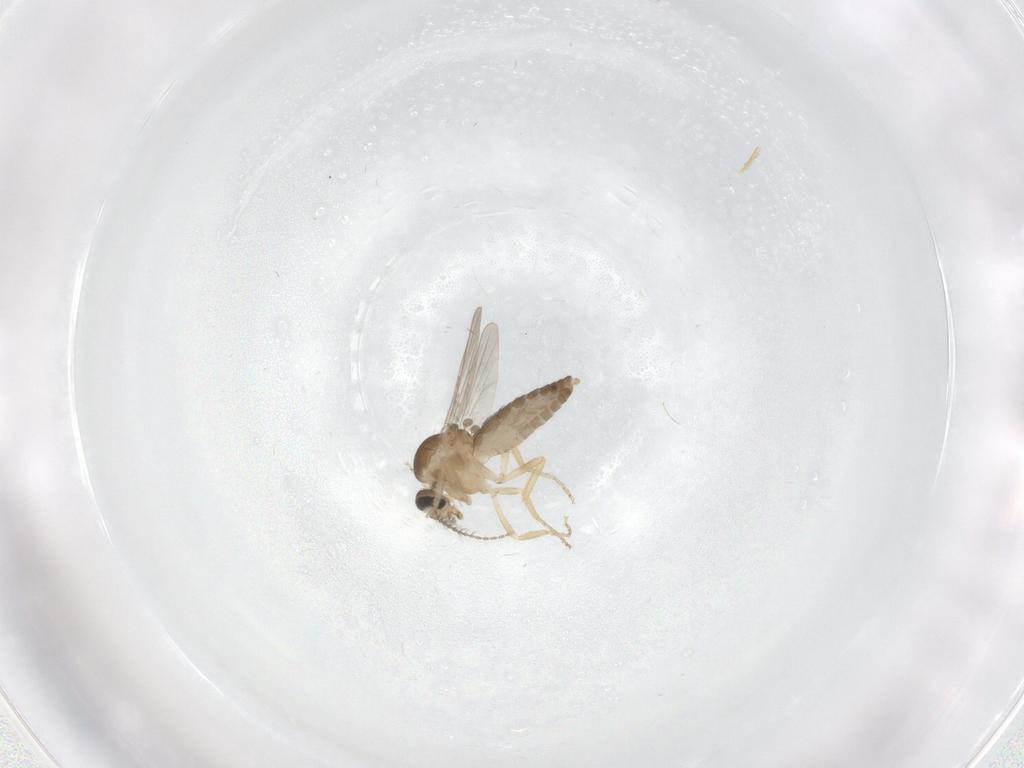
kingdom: Animalia
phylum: Arthropoda
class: Insecta
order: Diptera
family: Ceratopogonidae
